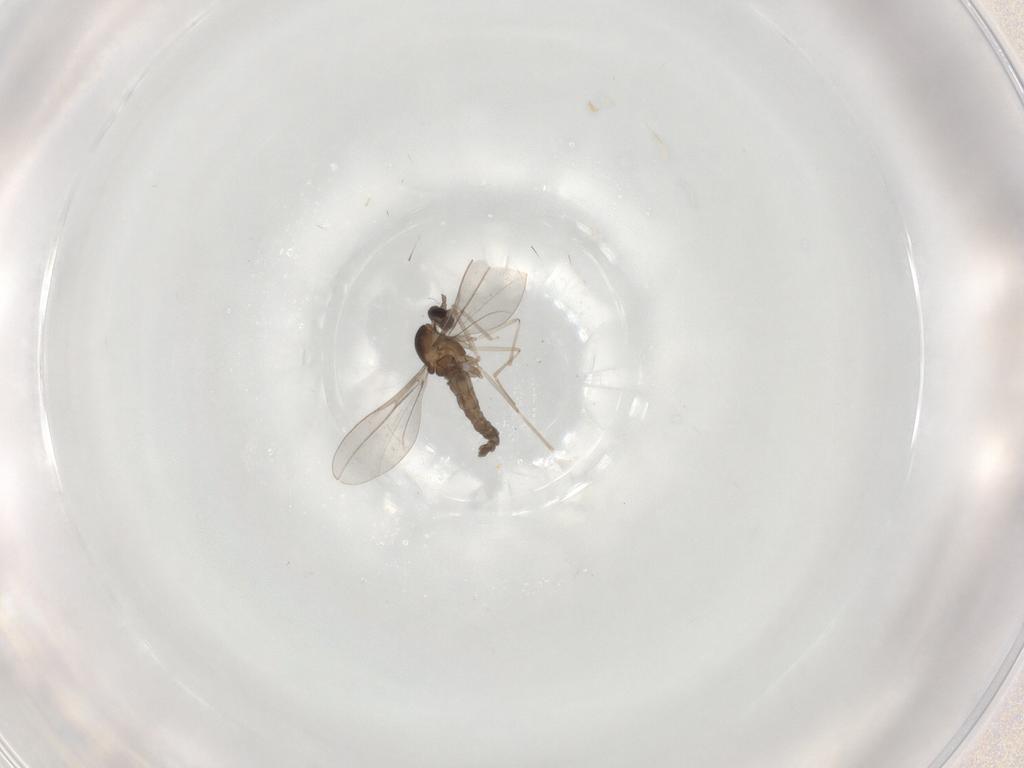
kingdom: Animalia
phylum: Arthropoda
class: Insecta
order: Diptera
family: Cecidomyiidae
